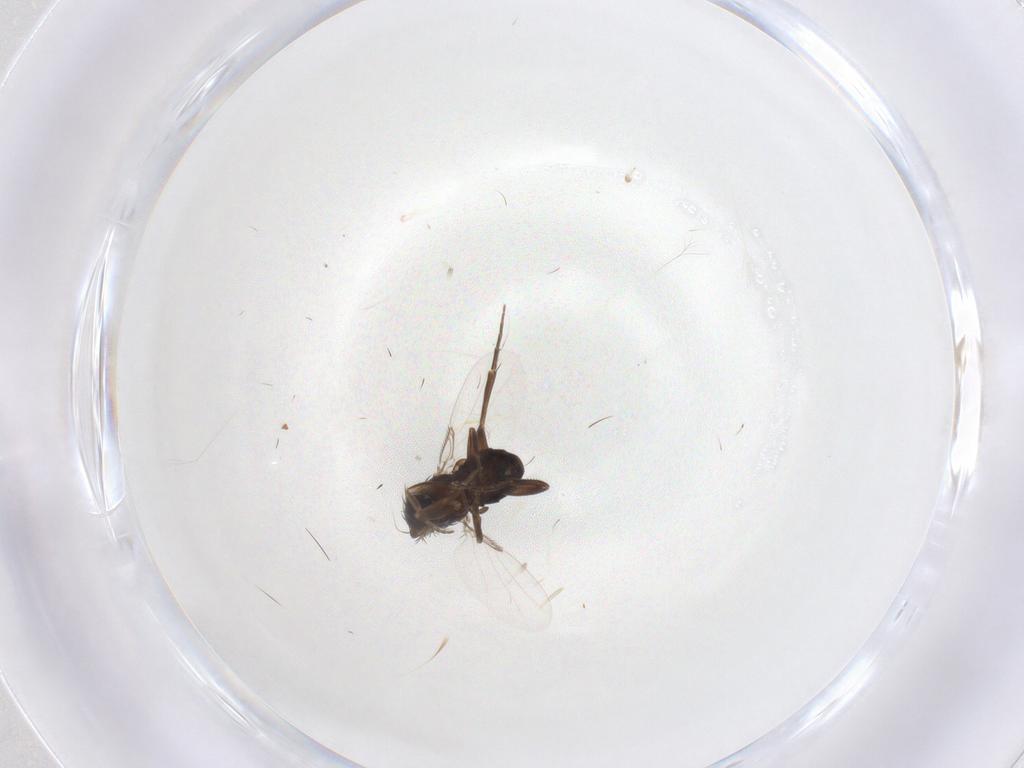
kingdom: Animalia
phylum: Arthropoda
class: Insecta
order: Diptera
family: Phoridae
